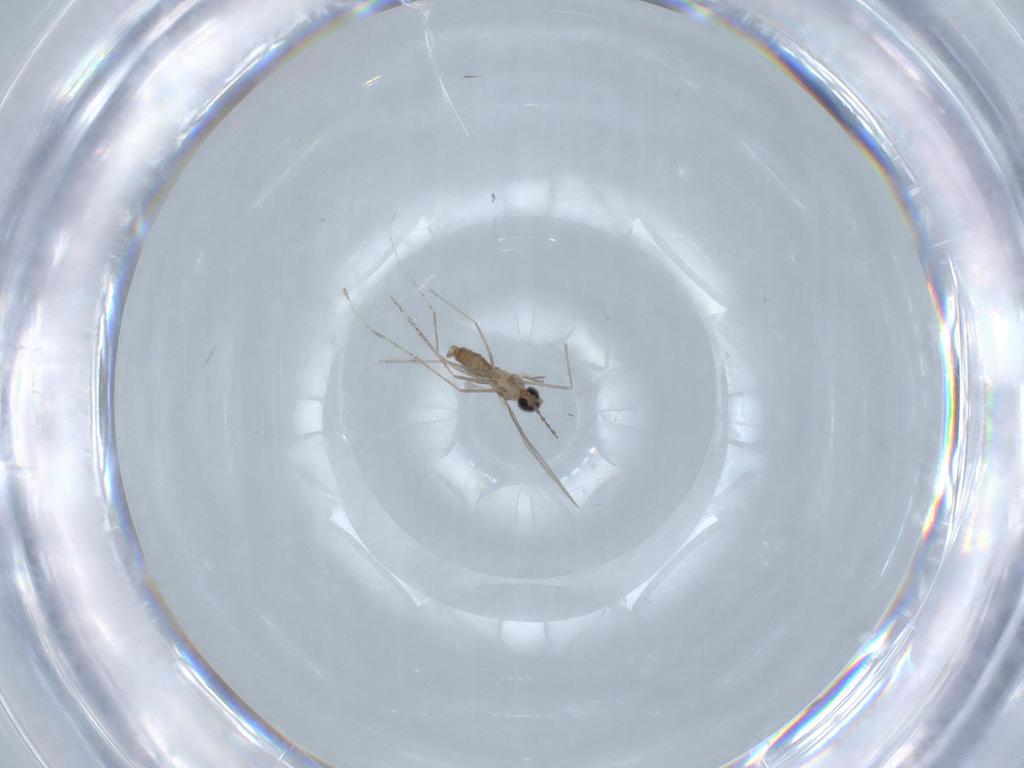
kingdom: Animalia
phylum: Arthropoda
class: Insecta
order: Diptera
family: Cecidomyiidae
